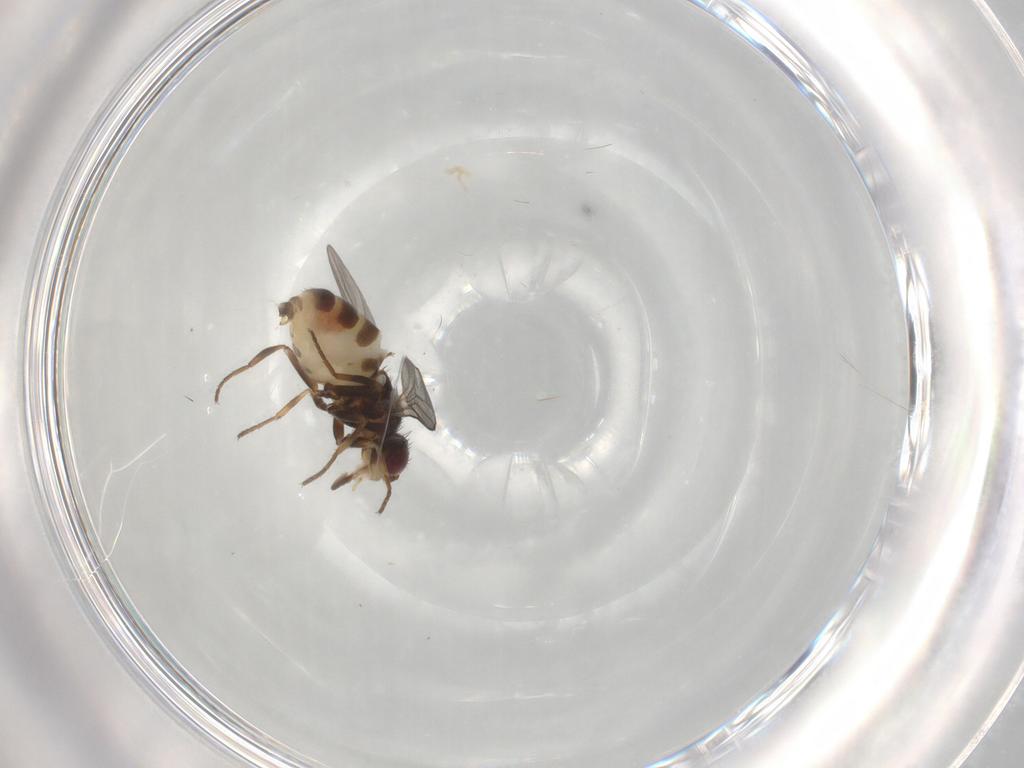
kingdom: Animalia
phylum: Arthropoda
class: Insecta
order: Diptera
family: Chloropidae
